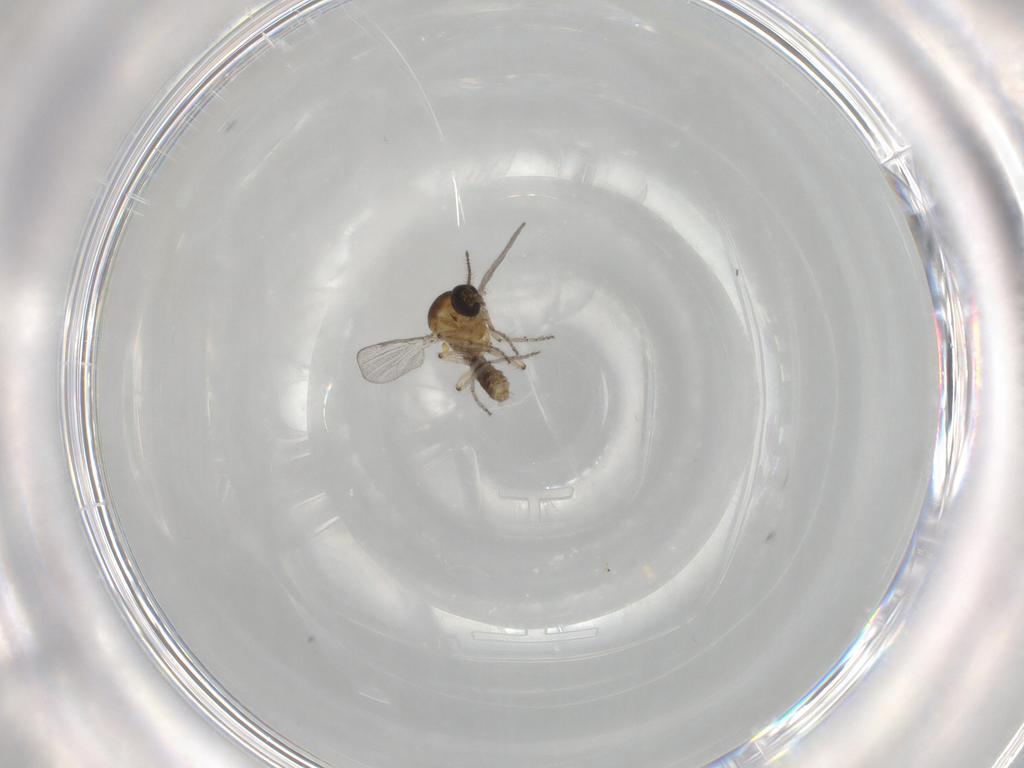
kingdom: Animalia
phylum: Arthropoda
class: Insecta
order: Diptera
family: Ceratopogonidae
